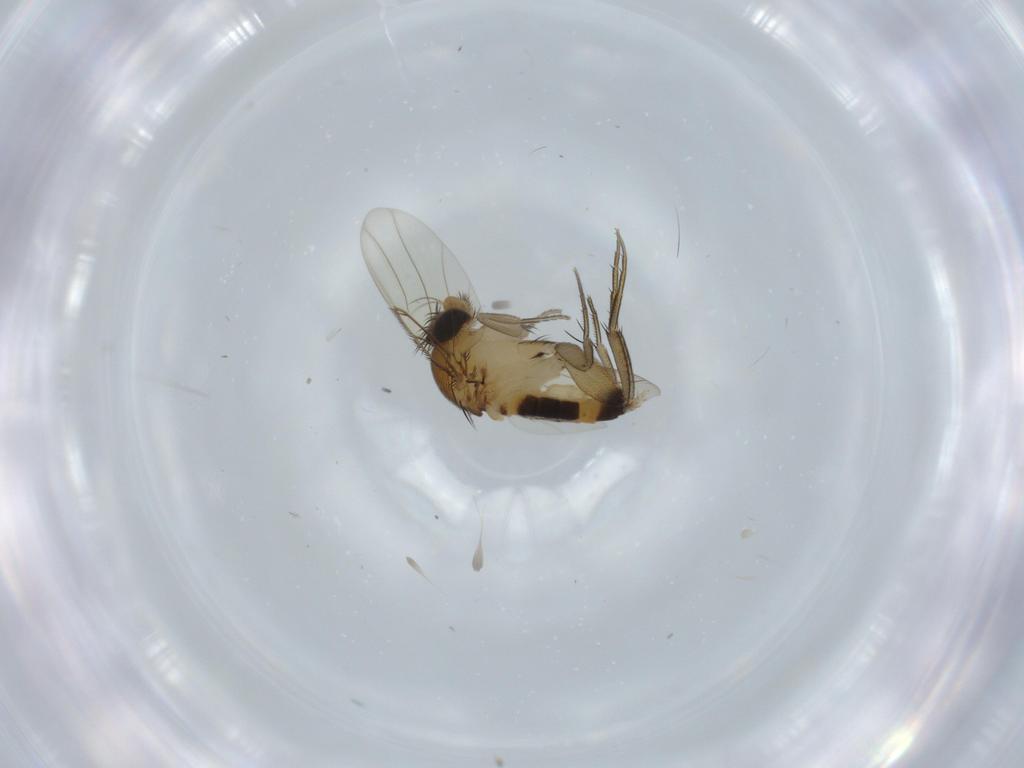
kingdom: Animalia
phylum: Arthropoda
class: Insecta
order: Diptera
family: Phoridae
